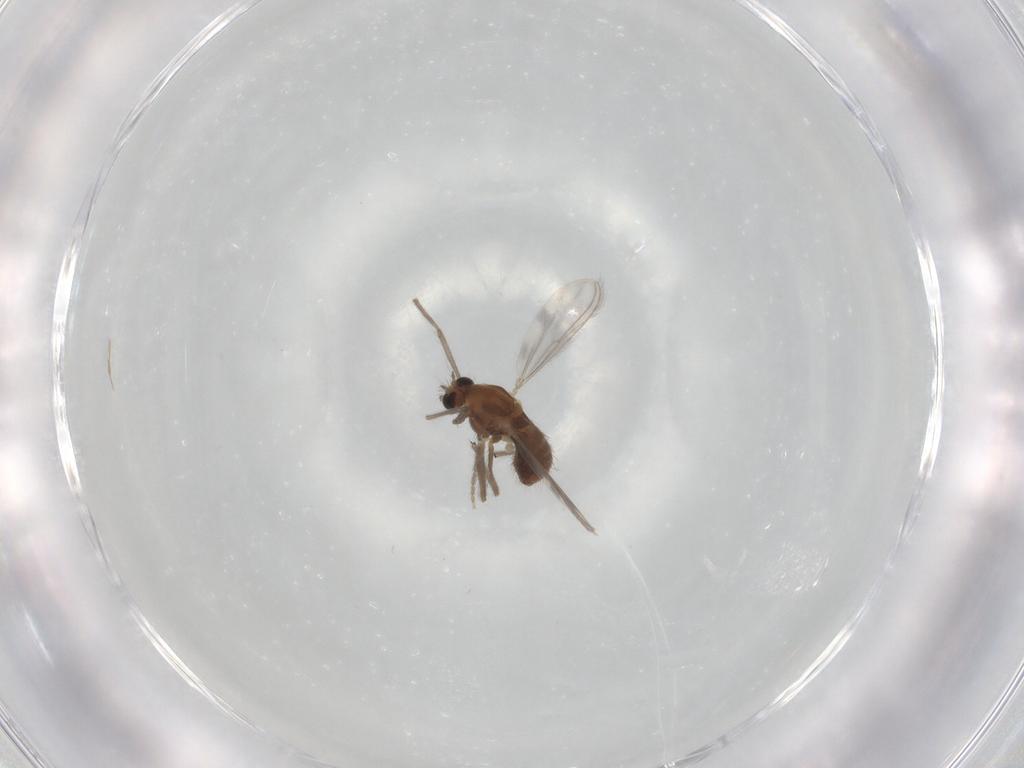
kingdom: Animalia
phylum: Arthropoda
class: Insecta
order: Diptera
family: Chironomidae
